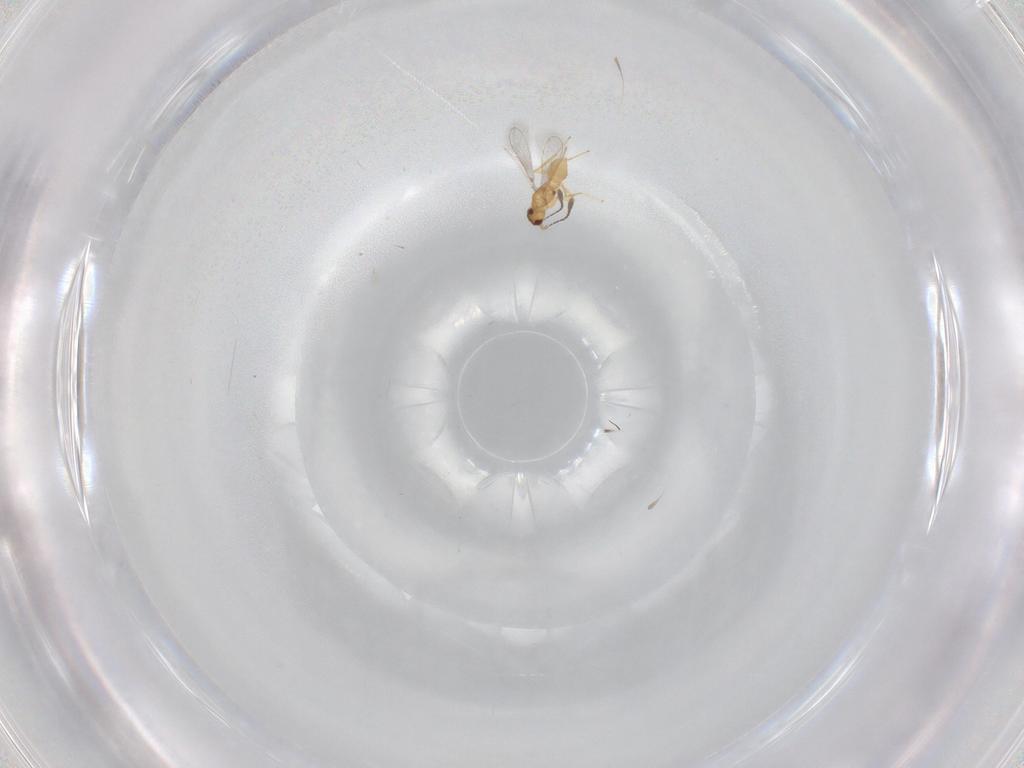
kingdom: Animalia
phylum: Arthropoda
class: Insecta
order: Hymenoptera
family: Mymaridae
